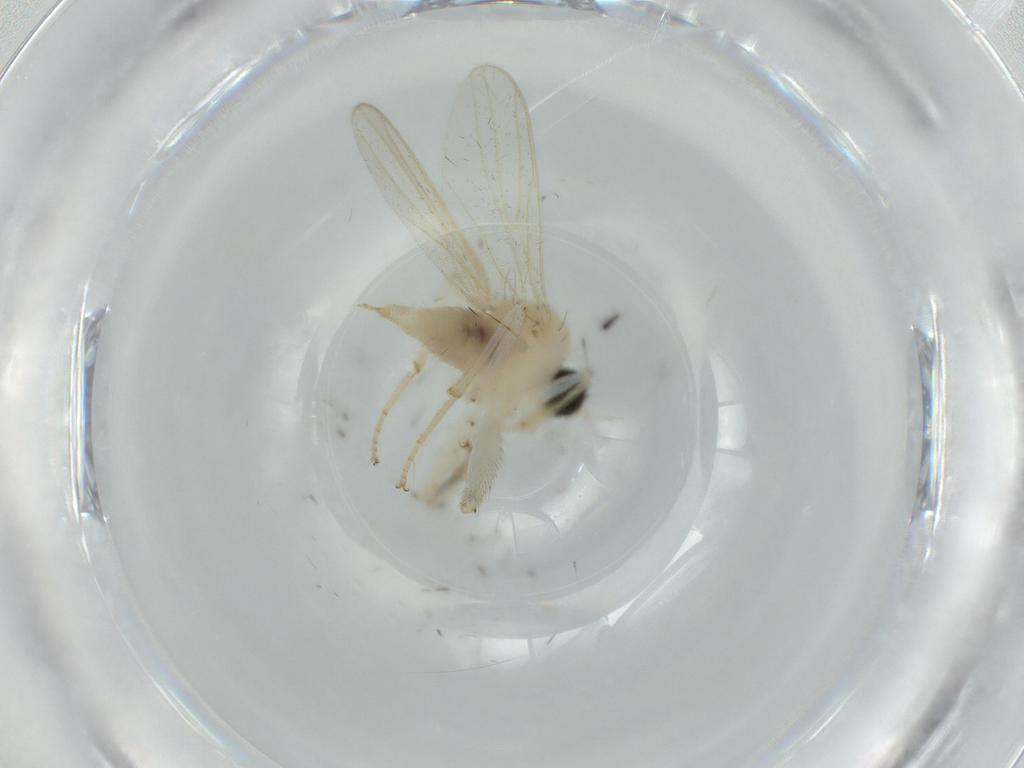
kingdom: Animalia
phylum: Arthropoda
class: Insecta
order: Diptera
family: Hybotidae
